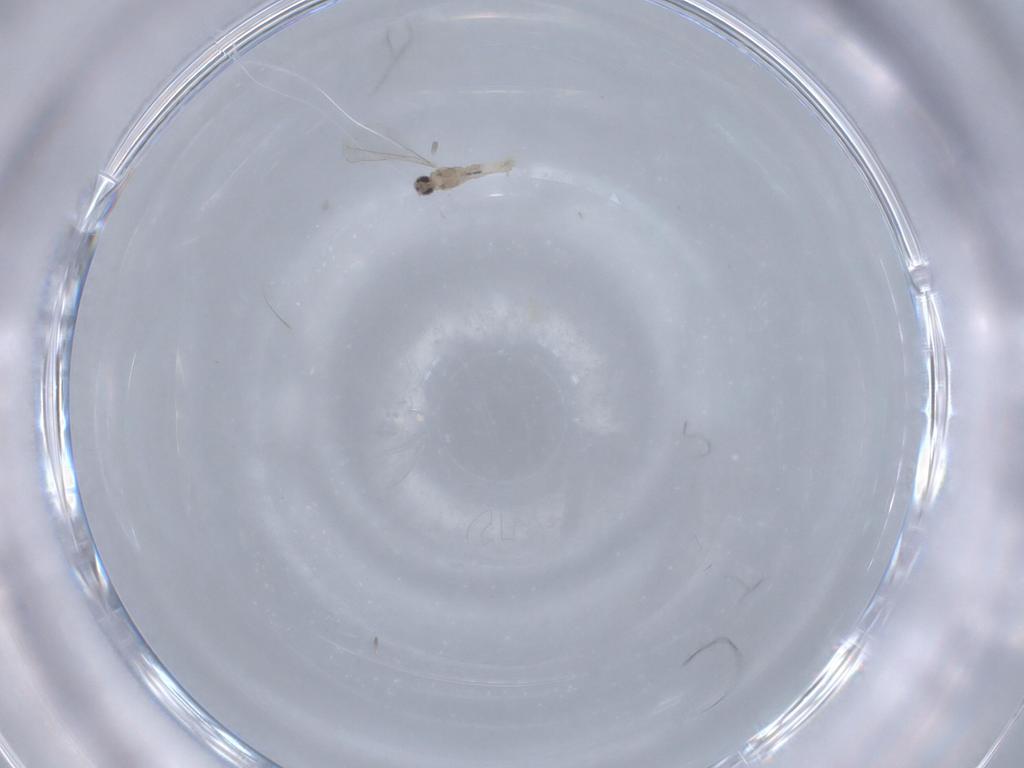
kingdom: Animalia
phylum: Arthropoda
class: Insecta
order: Diptera
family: Cecidomyiidae
